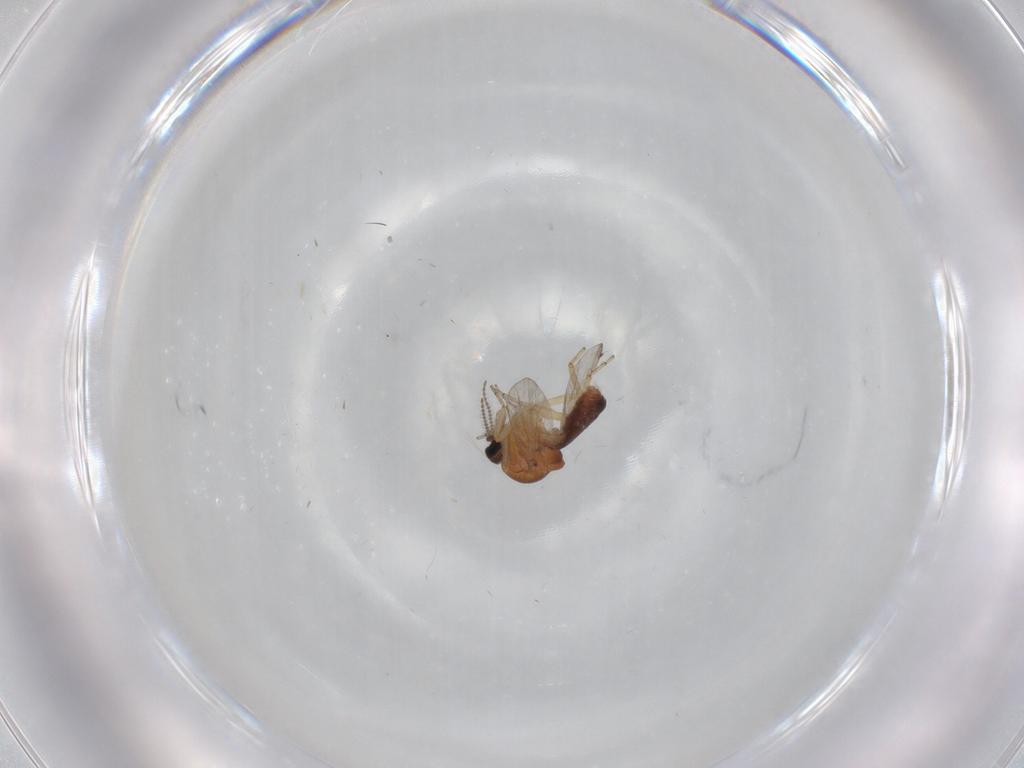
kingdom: Animalia
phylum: Arthropoda
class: Insecta
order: Diptera
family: Ceratopogonidae
